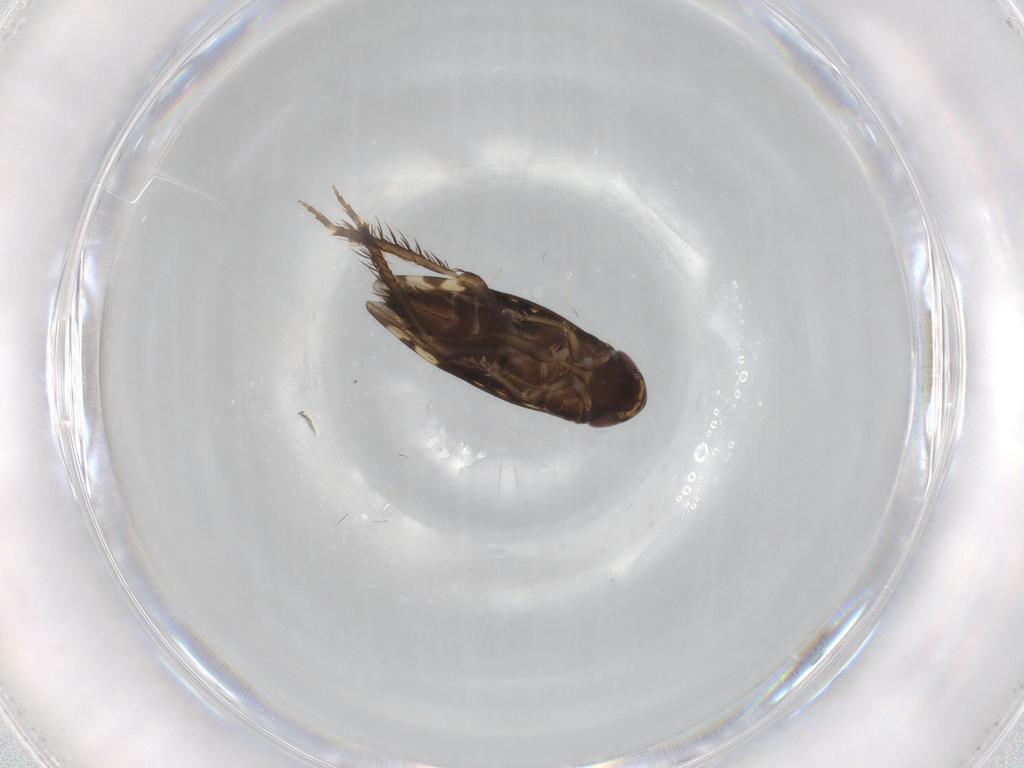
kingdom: Animalia
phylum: Arthropoda
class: Insecta
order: Hemiptera
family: Cicadellidae
